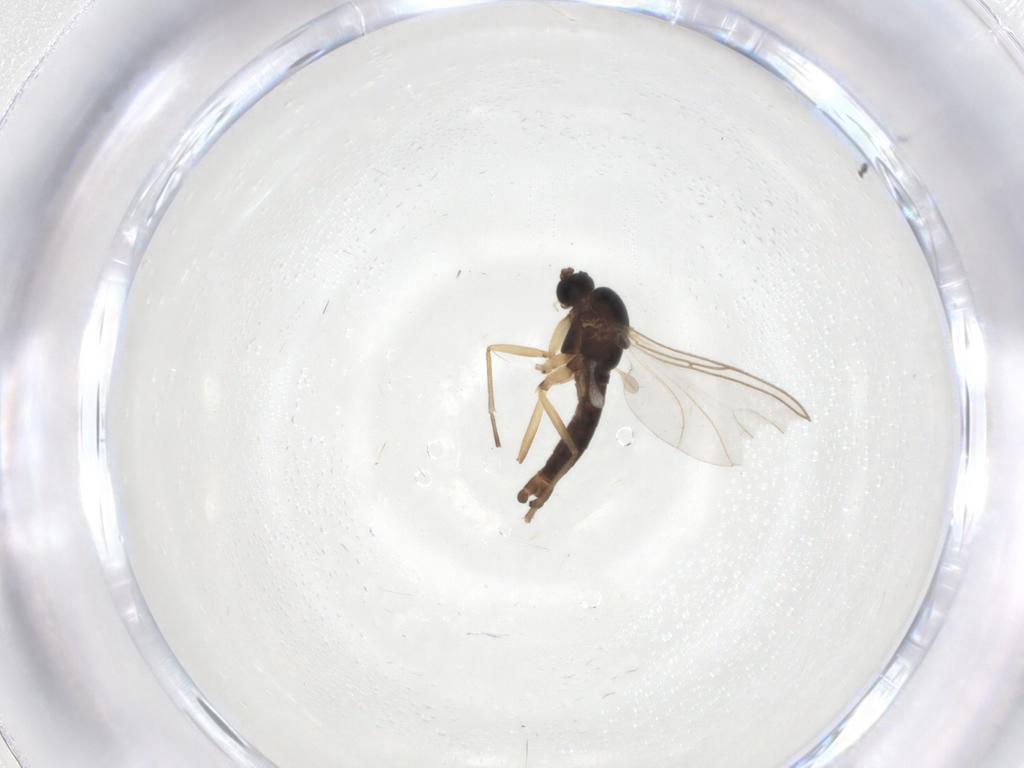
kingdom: Animalia
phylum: Arthropoda
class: Insecta
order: Diptera
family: Sciaridae
